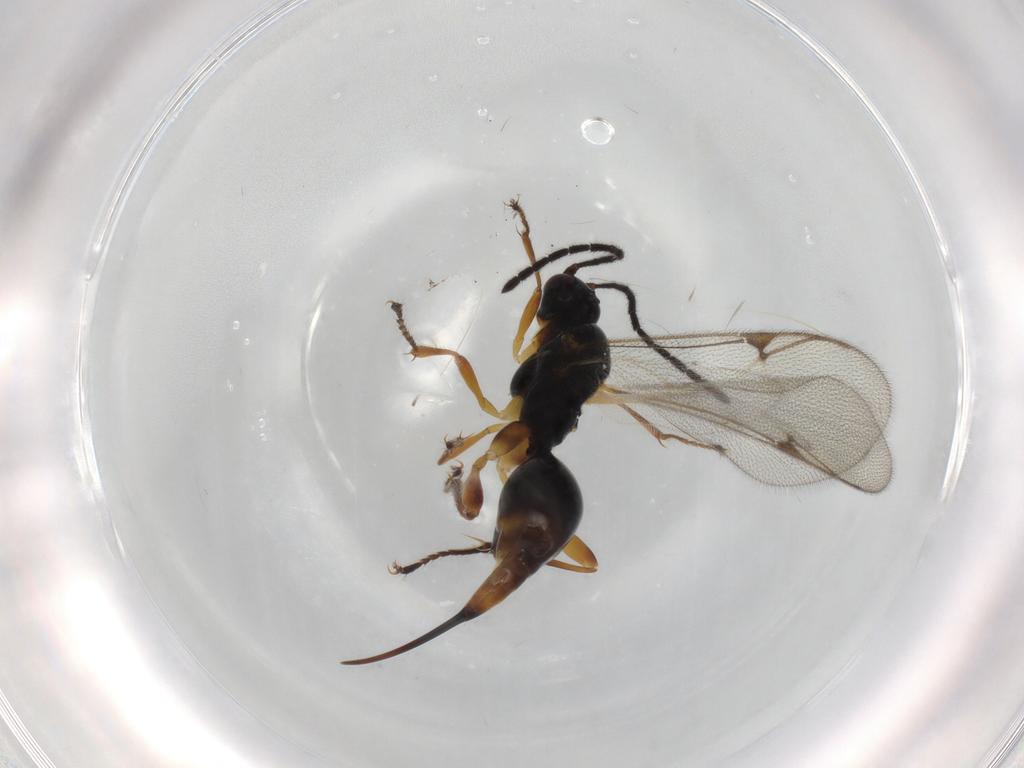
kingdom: Animalia
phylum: Arthropoda
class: Insecta
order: Hymenoptera
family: Proctotrupidae
